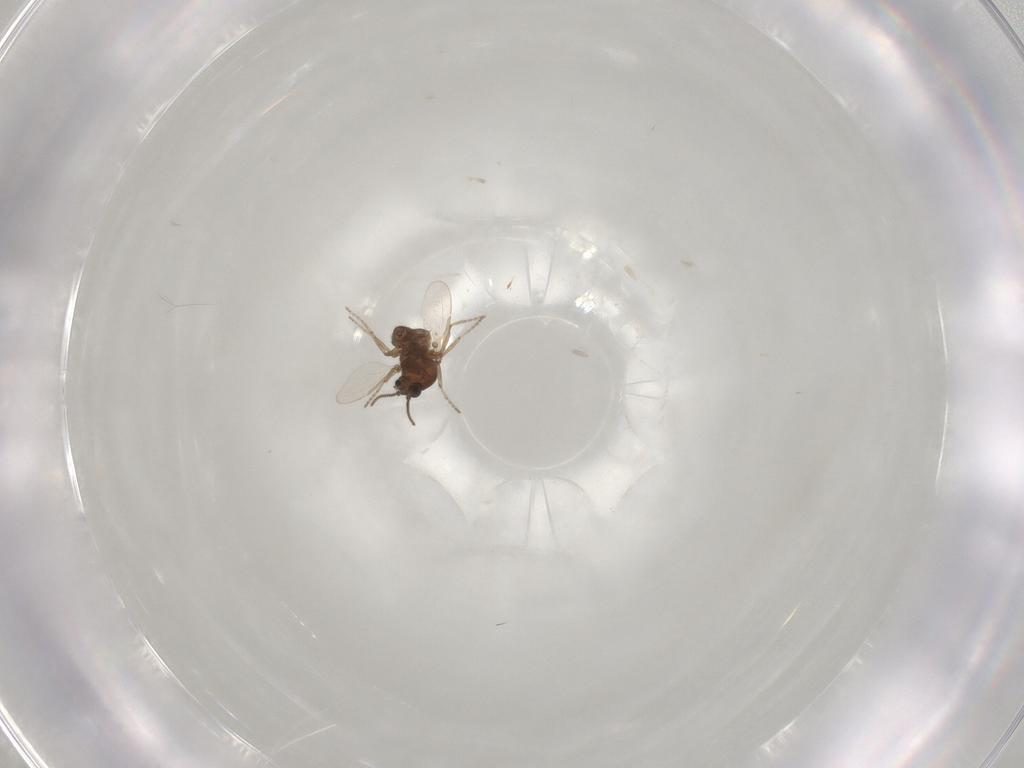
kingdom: Animalia
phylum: Arthropoda
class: Insecta
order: Diptera
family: Ceratopogonidae
